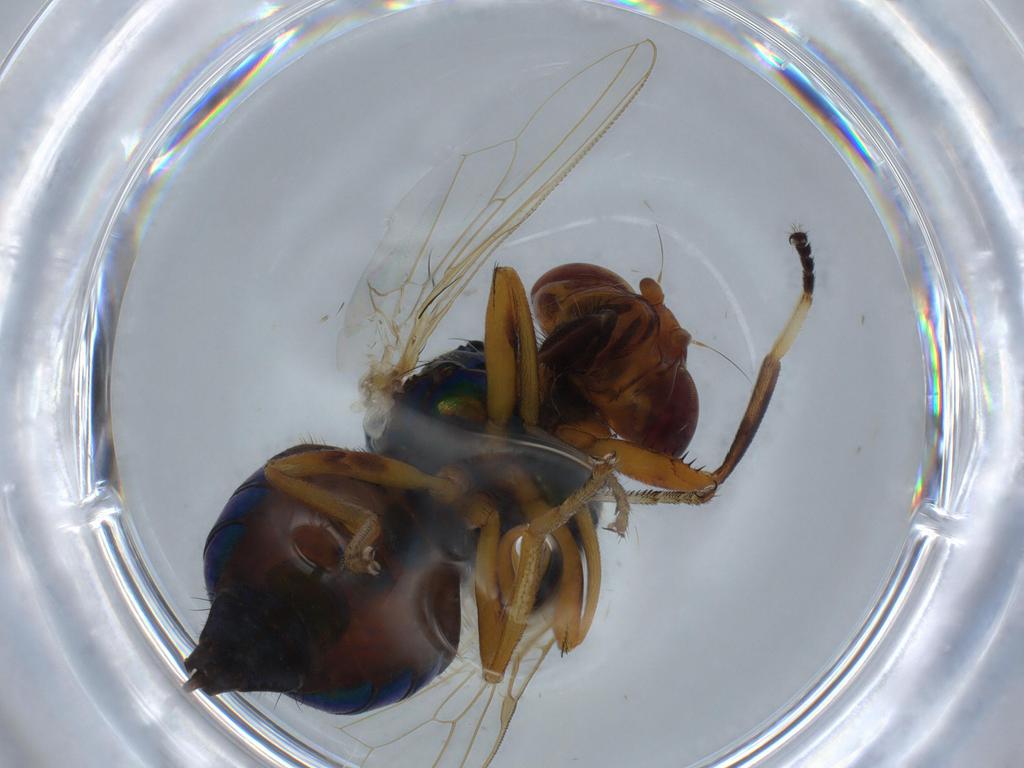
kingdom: Animalia
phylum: Arthropoda
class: Insecta
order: Diptera
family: Ulidiidae
